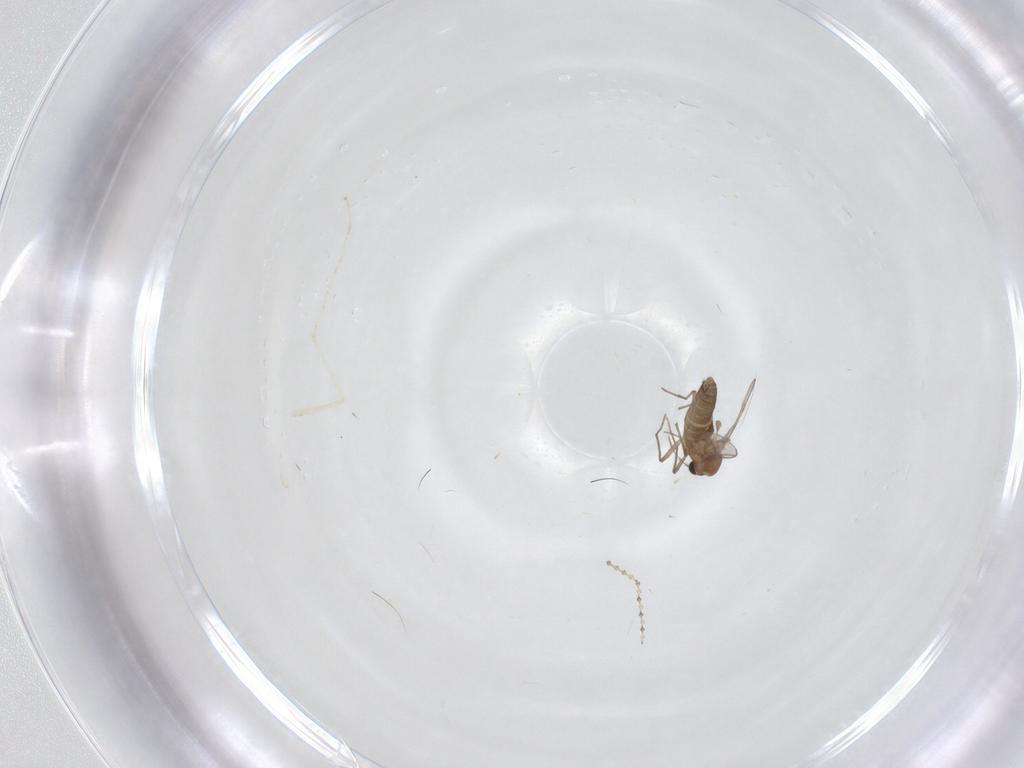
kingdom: Animalia
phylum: Arthropoda
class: Insecta
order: Diptera
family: Chironomidae
